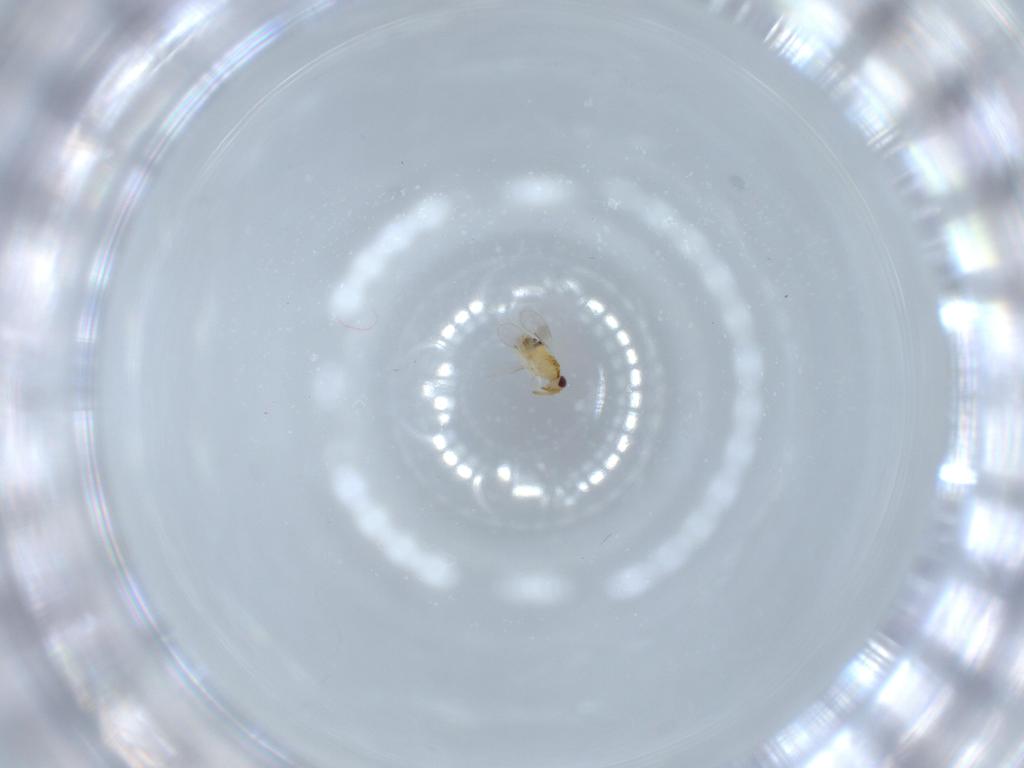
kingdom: Animalia
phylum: Arthropoda
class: Insecta
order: Hymenoptera
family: Aphelinidae
